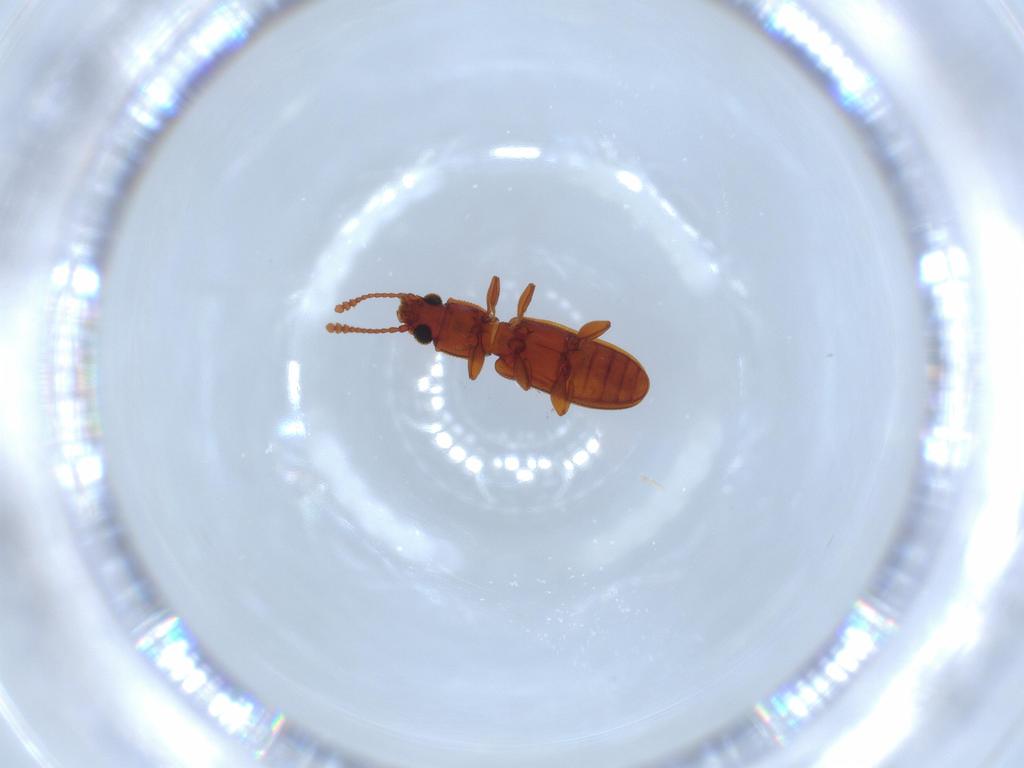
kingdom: Animalia
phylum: Arthropoda
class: Insecta
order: Coleoptera
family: Silvanidae
